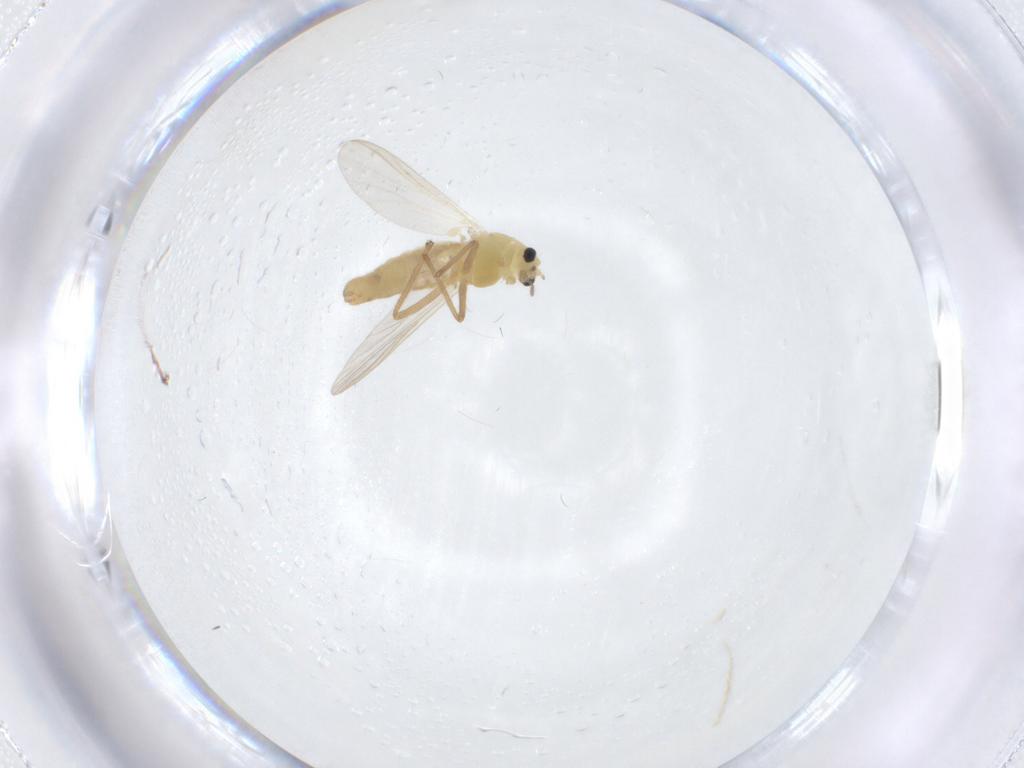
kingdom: Animalia
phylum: Arthropoda
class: Insecta
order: Diptera
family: Chironomidae
